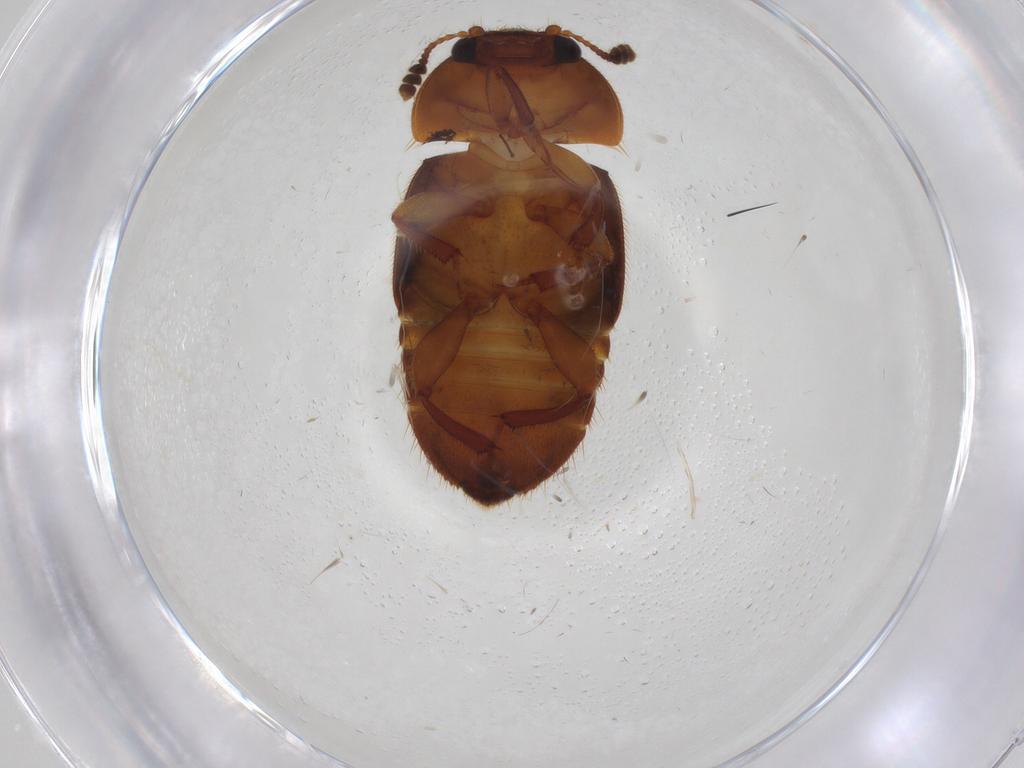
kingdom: Animalia
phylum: Arthropoda
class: Insecta
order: Coleoptera
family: Nitidulidae
